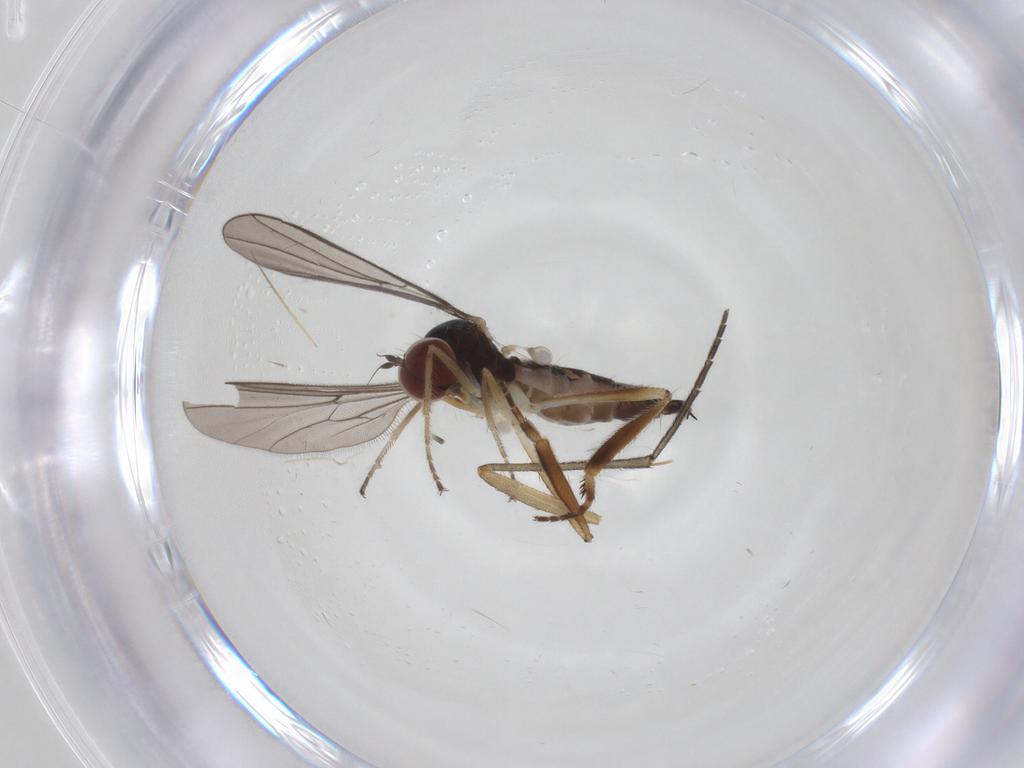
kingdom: Animalia
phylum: Arthropoda
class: Insecta
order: Diptera
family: Hybotidae
